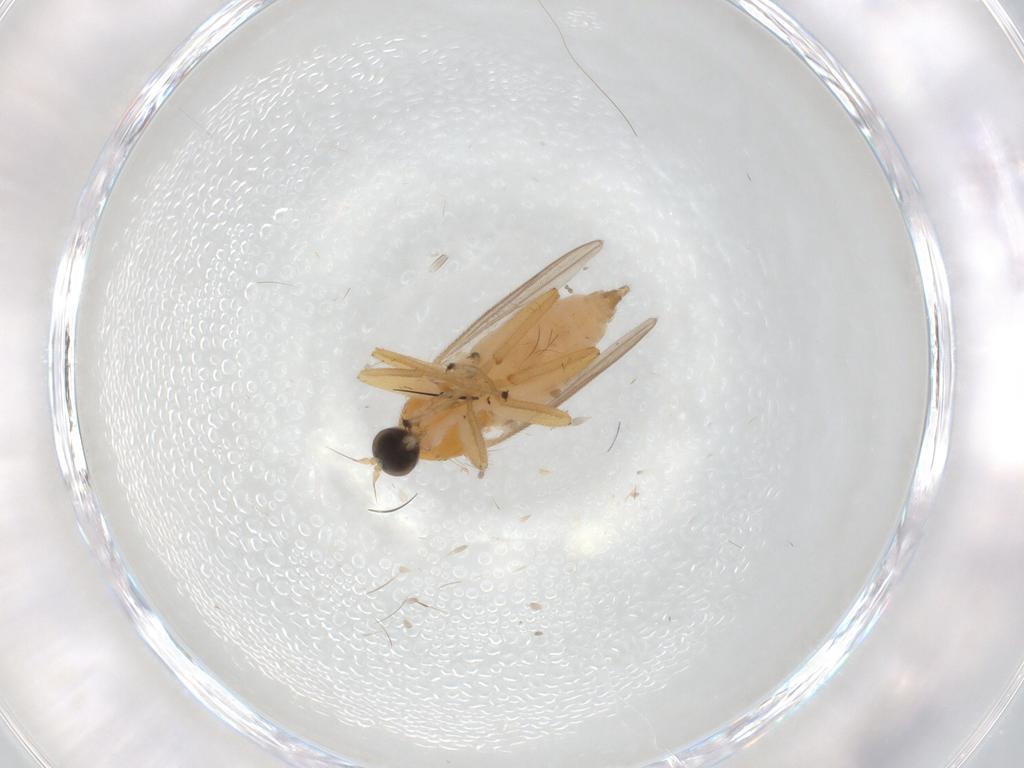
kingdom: Animalia
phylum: Arthropoda
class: Insecta
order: Diptera
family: Hybotidae
